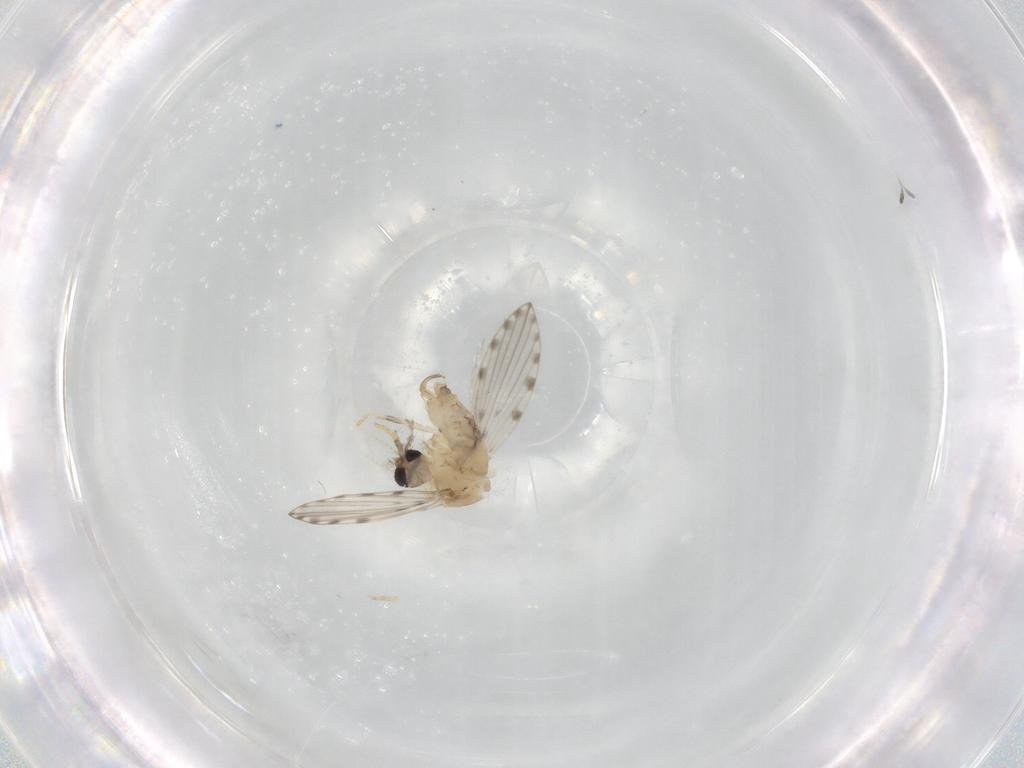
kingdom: Animalia
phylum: Arthropoda
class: Insecta
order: Diptera
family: Psychodidae
